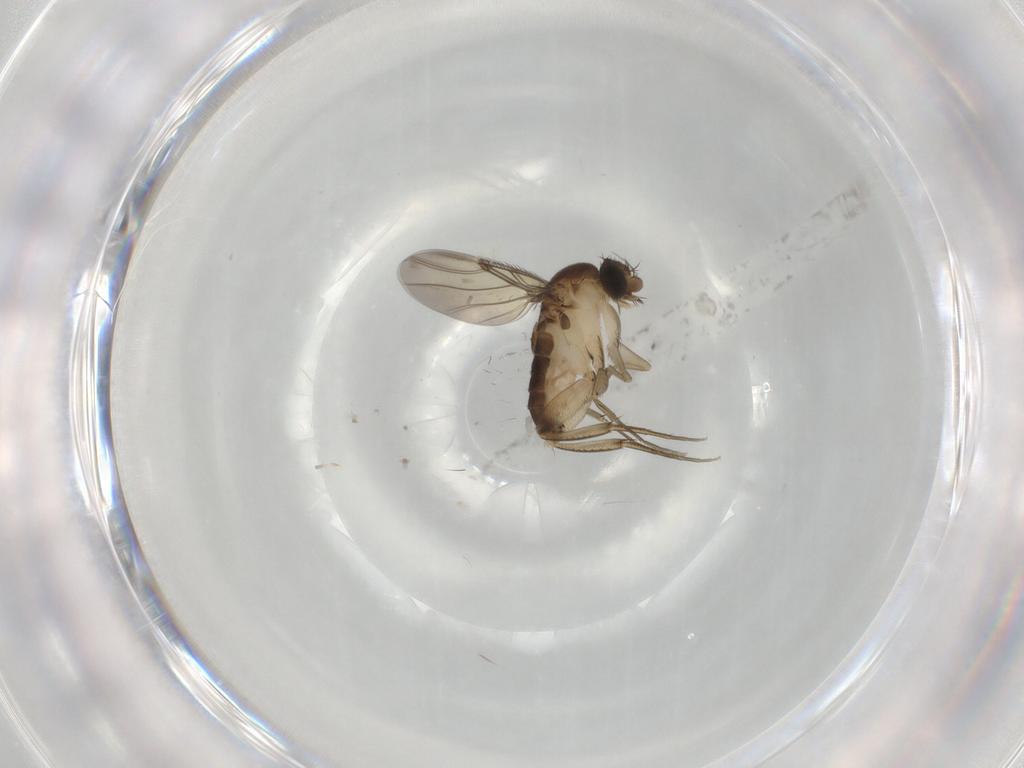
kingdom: Animalia
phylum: Arthropoda
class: Insecta
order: Diptera
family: Phoridae
